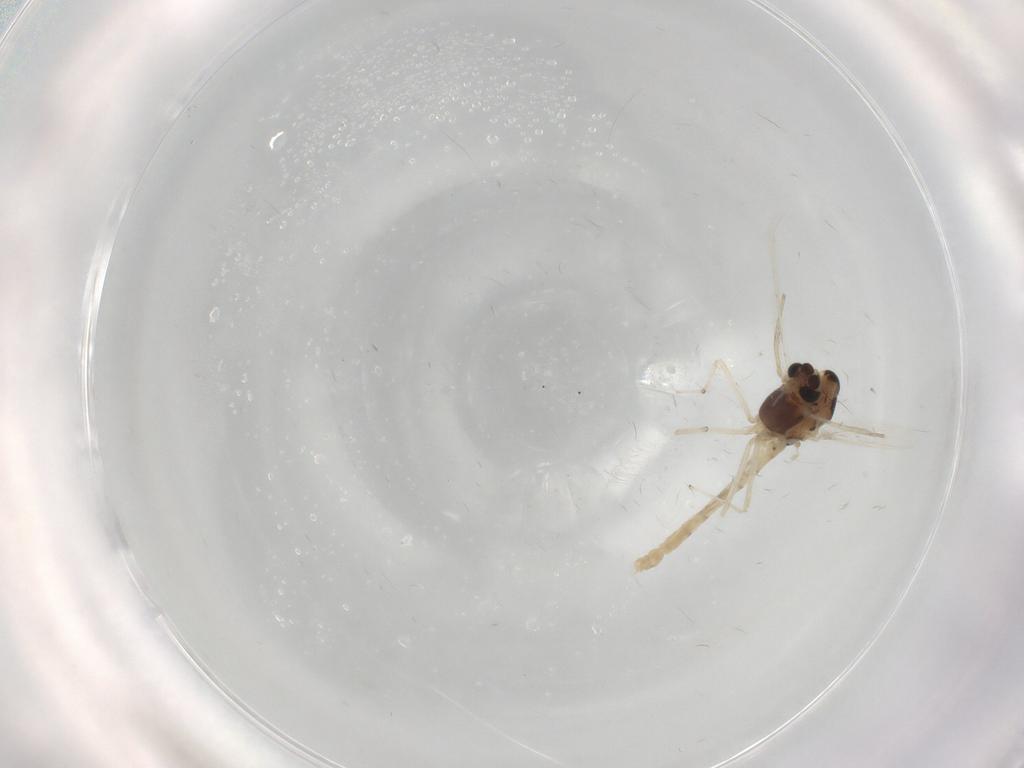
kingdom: Animalia
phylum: Arthropoda
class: Insecta
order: Diptera
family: Chironomidae
